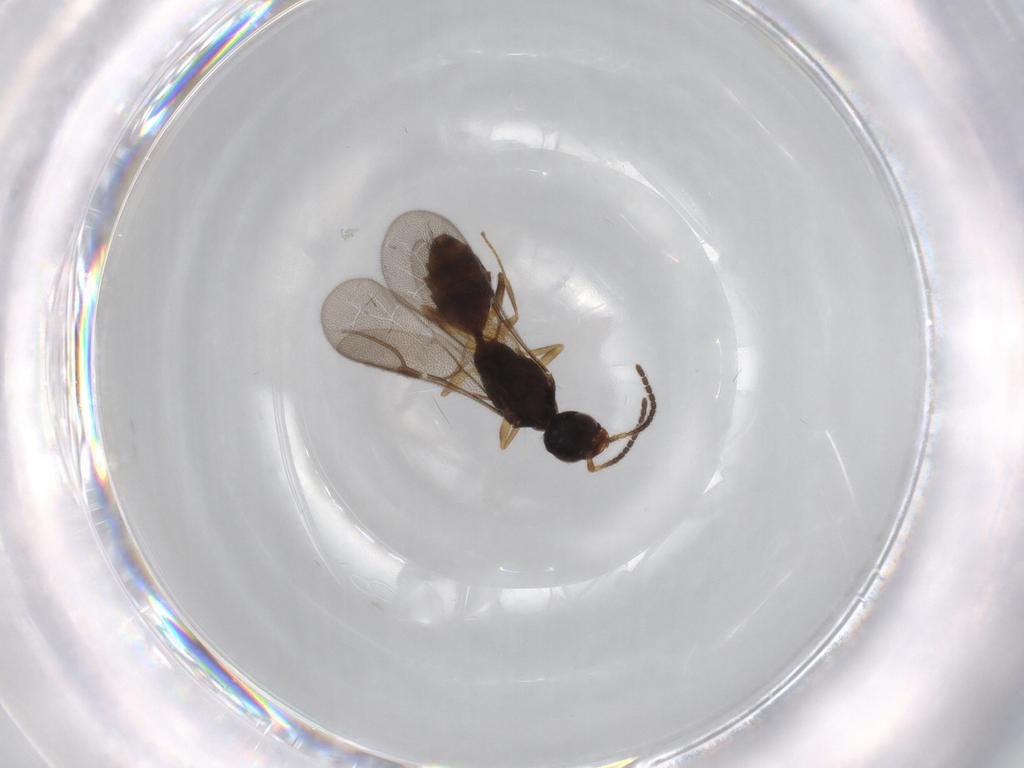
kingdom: Animalia
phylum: Arthropoda
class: Insecta
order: Hymenoptera
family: Bethylidae
